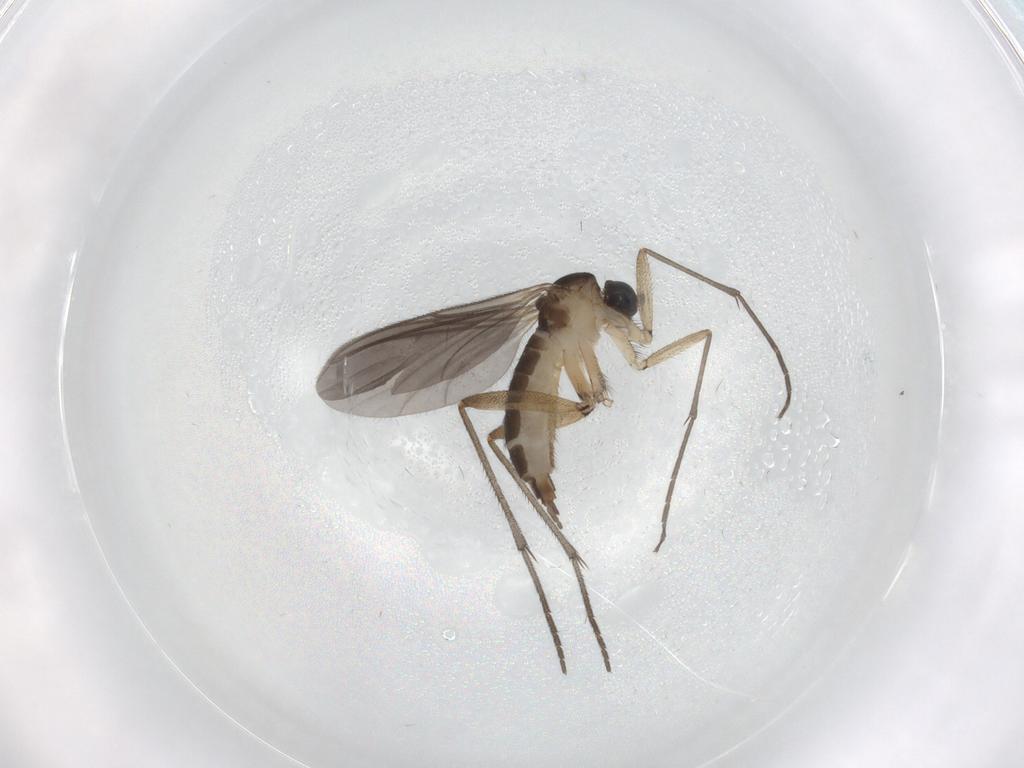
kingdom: Animalia
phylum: Arthropoda
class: Insecta
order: Diptera
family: Sciaridae
